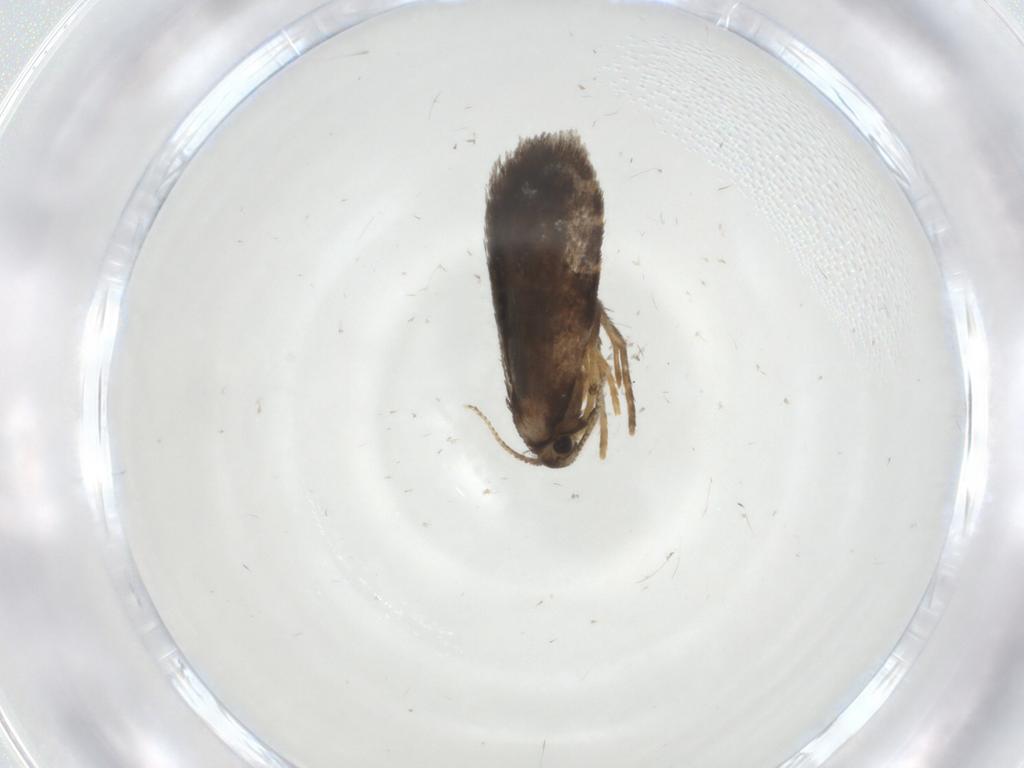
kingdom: Animalia
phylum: Arthropoda
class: Insecta
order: Lepidoptera
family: Psychidae
